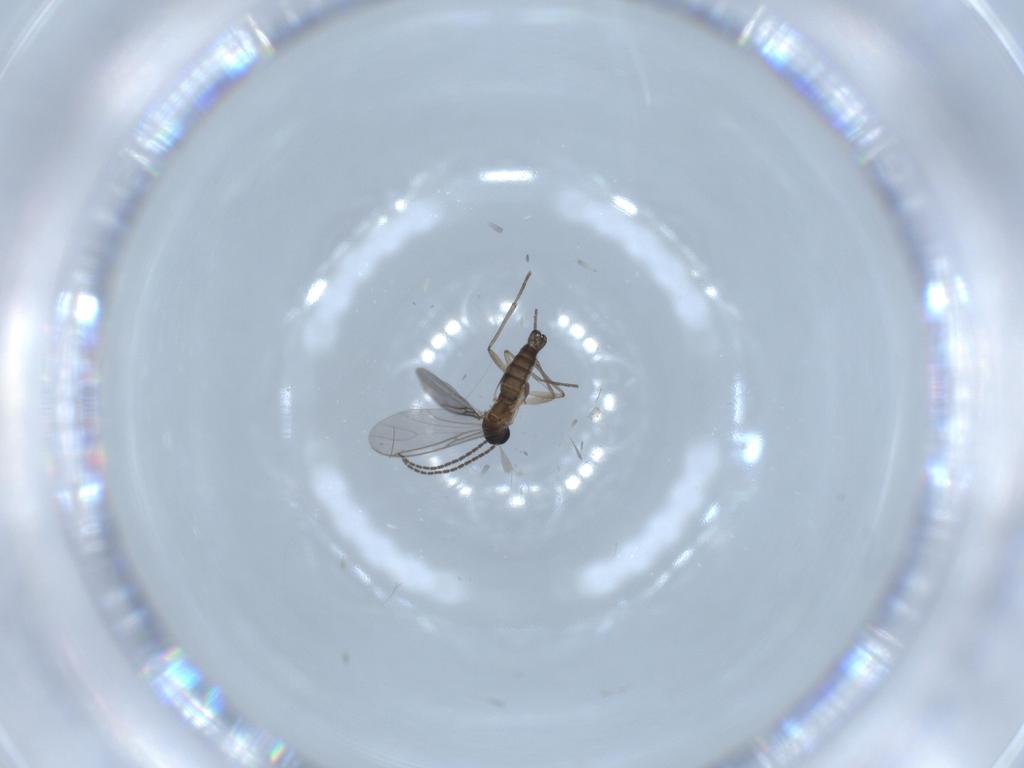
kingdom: Animalia
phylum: Arthropoda
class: Insecta
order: Diptera
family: Sciaridae
